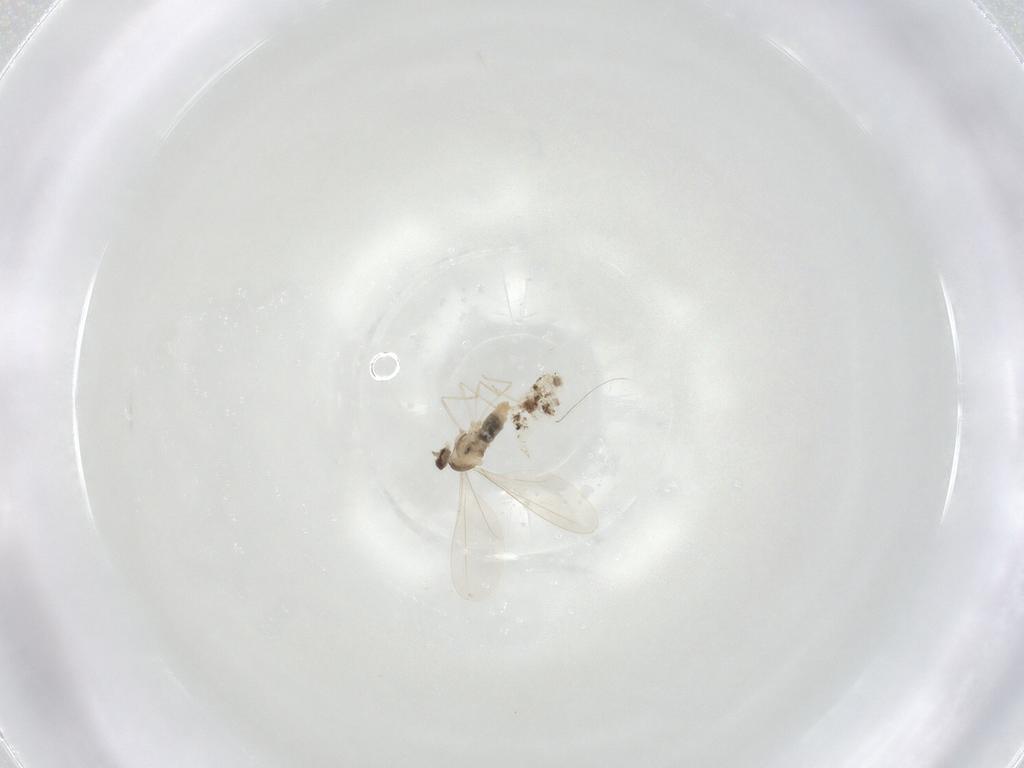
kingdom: Animalia
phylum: Arthropoda
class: Insecta
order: Diptera
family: Cecidomyiidae
